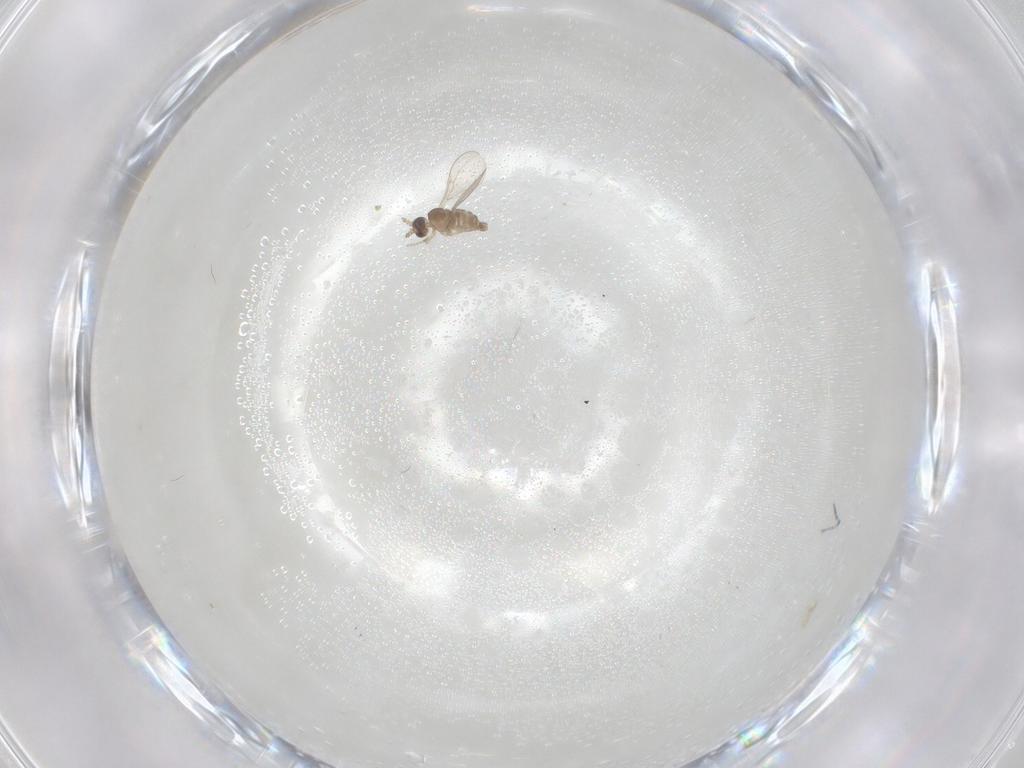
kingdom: Animalia
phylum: Arthropoda
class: Insecta
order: Diptera
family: Cecidomyiidae
